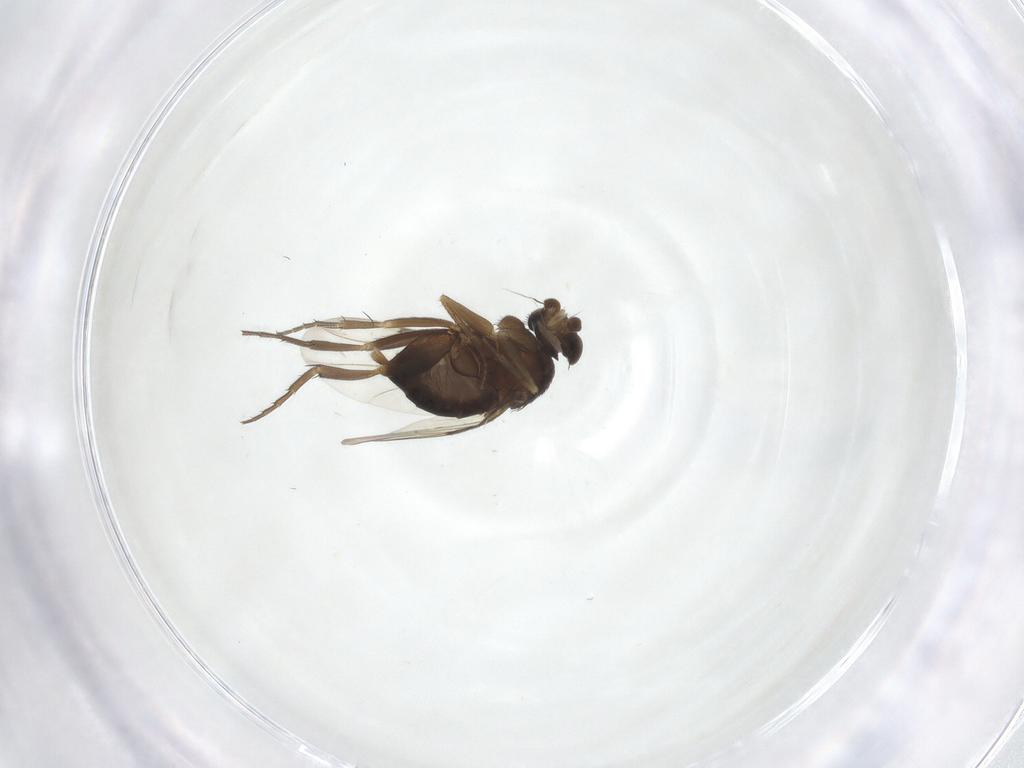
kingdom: Animalia
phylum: Arthropoda
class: Insecta
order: Diptera
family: Phoridae
